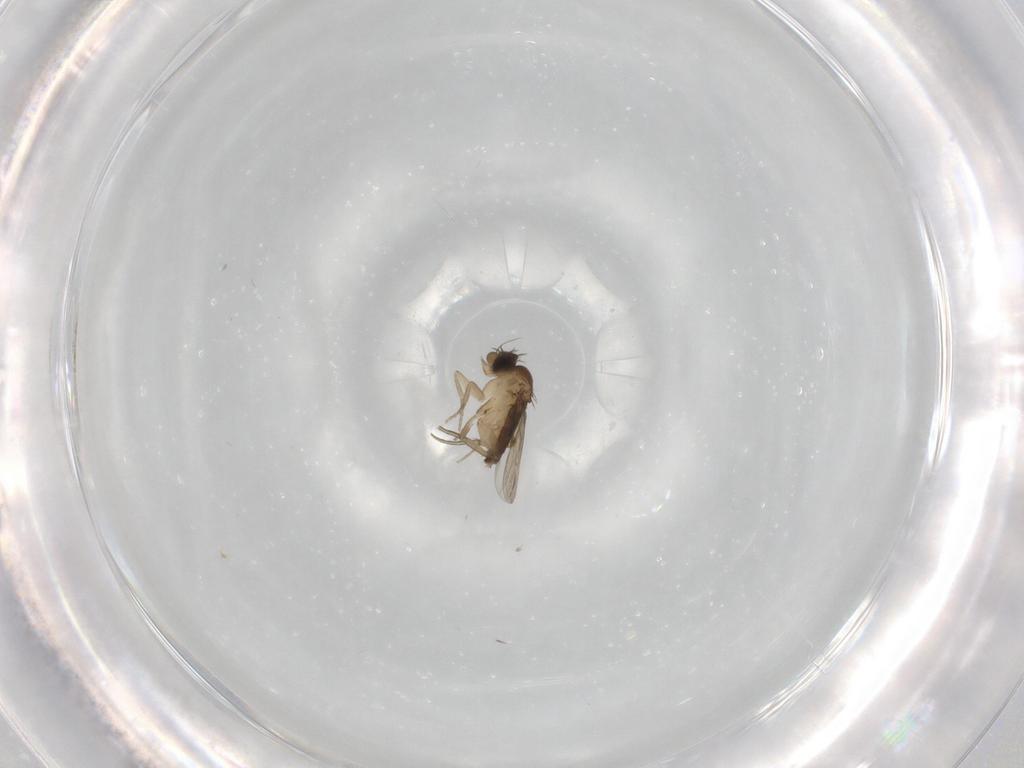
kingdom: Animalia
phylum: Arthropoda
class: Insecta
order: Diptera
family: Phoridae
